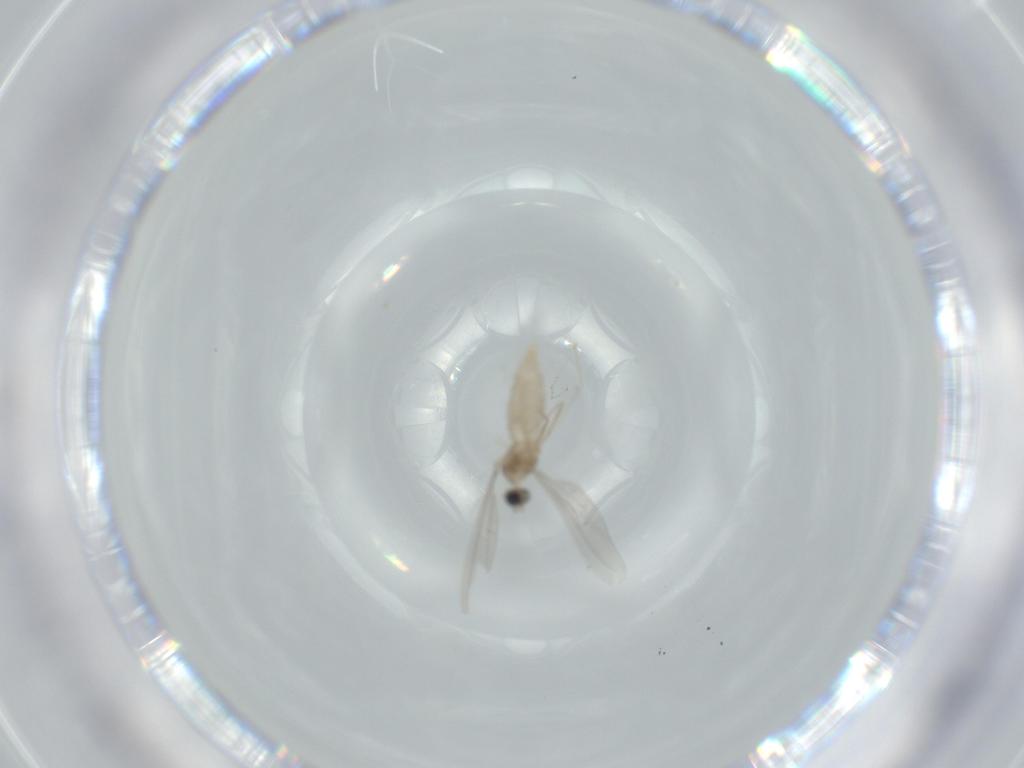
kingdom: Animalia
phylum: Arthropoda
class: Insecta
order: Diptera
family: Cecidomyiidae
